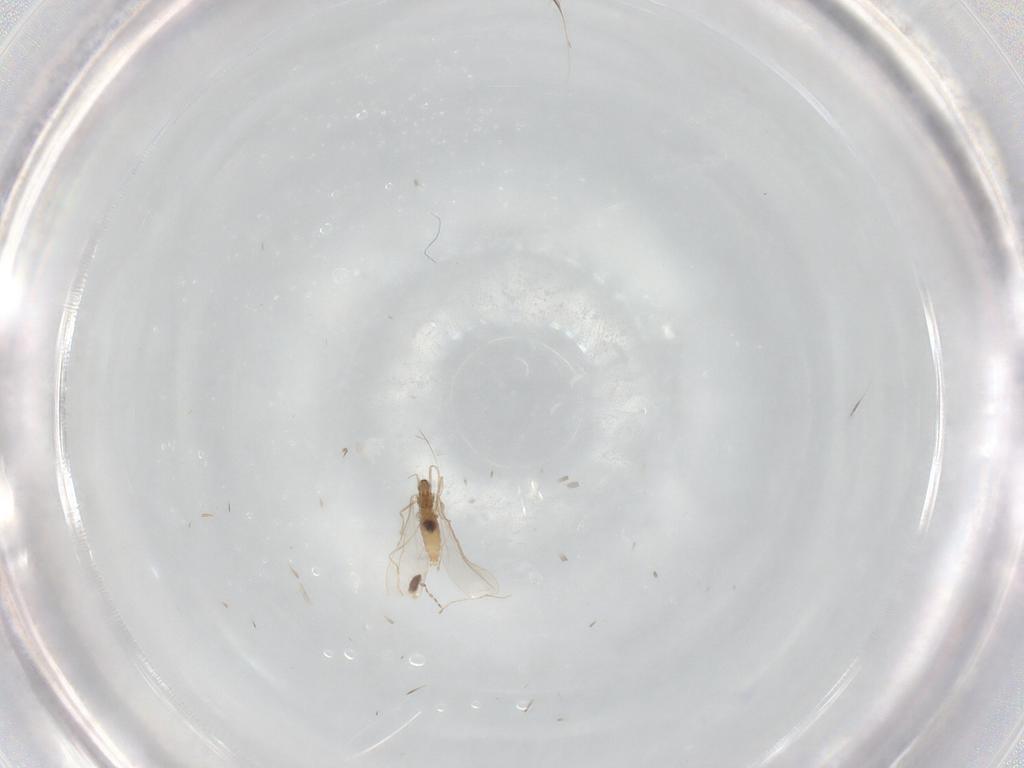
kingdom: Animalia
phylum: Arthropoda
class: Insecta
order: Diptera
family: Cecidomyiidae
